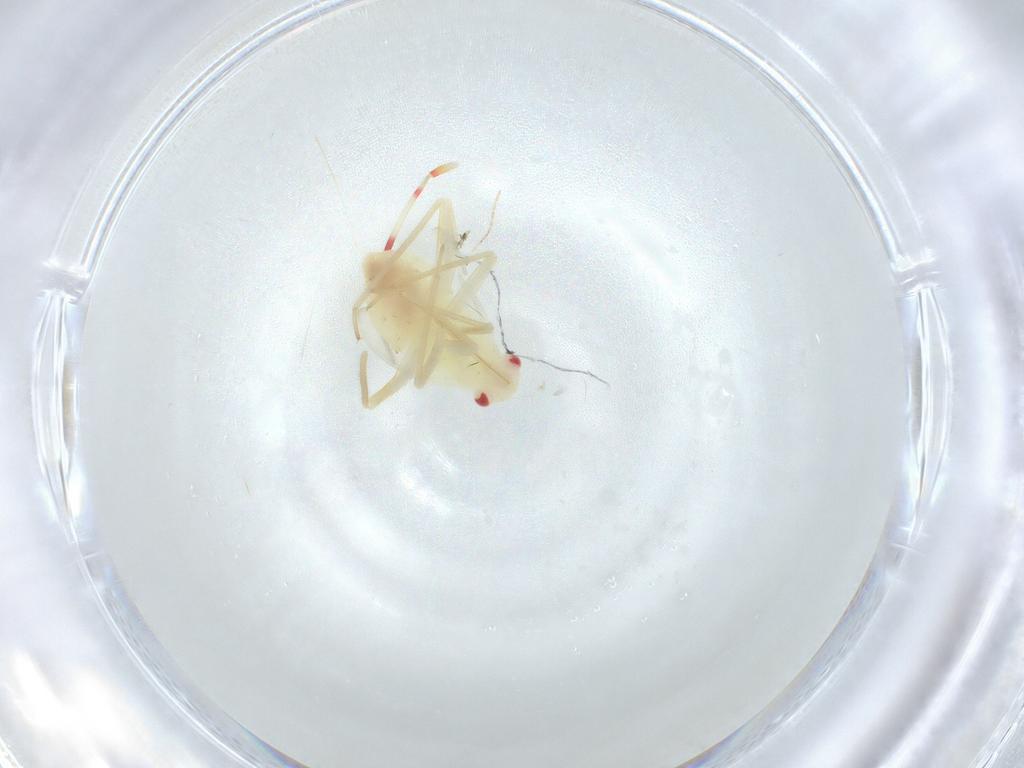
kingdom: Animalia
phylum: Arthropoda
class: Insecta
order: Hemiptera
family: Miridae
